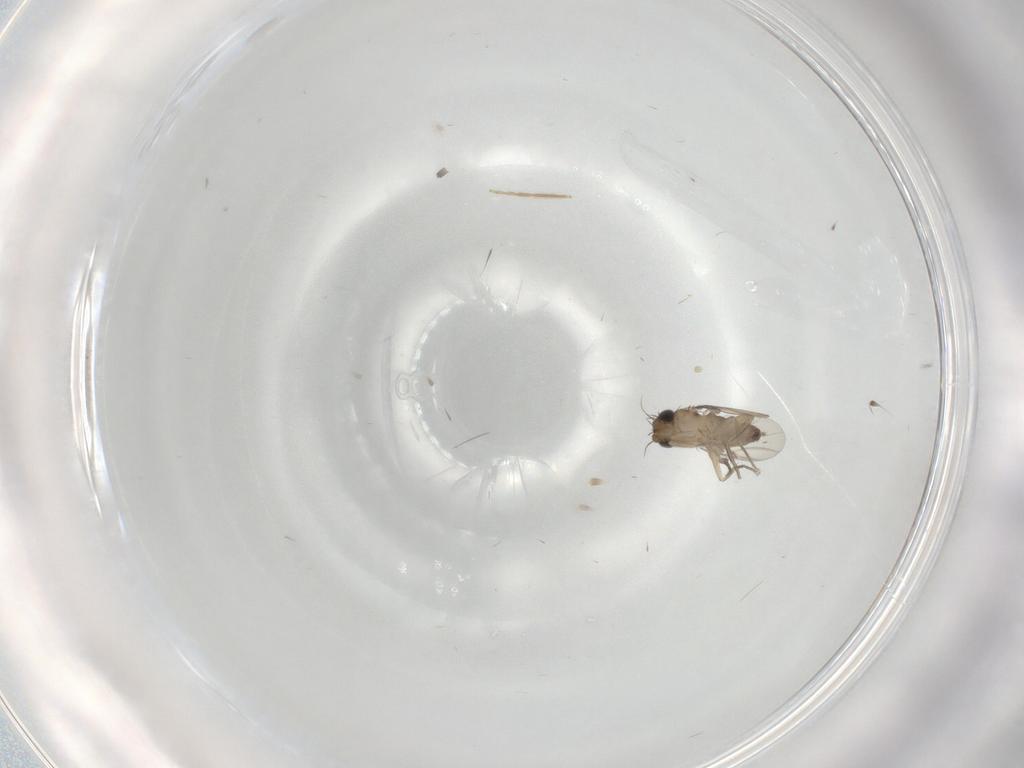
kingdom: Animalia
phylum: Arthropoda
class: Insecta
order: Diptera
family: Phoridae
